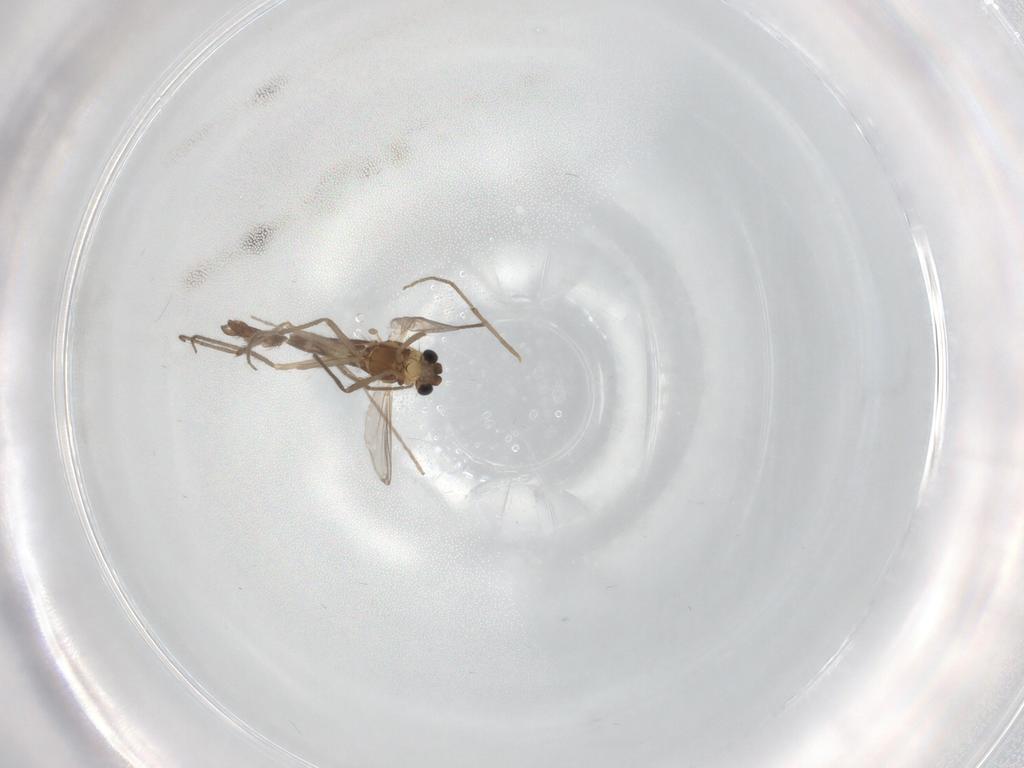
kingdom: Animalia
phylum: Arthropoda
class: Insecta
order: Diptera
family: Chironomidae
